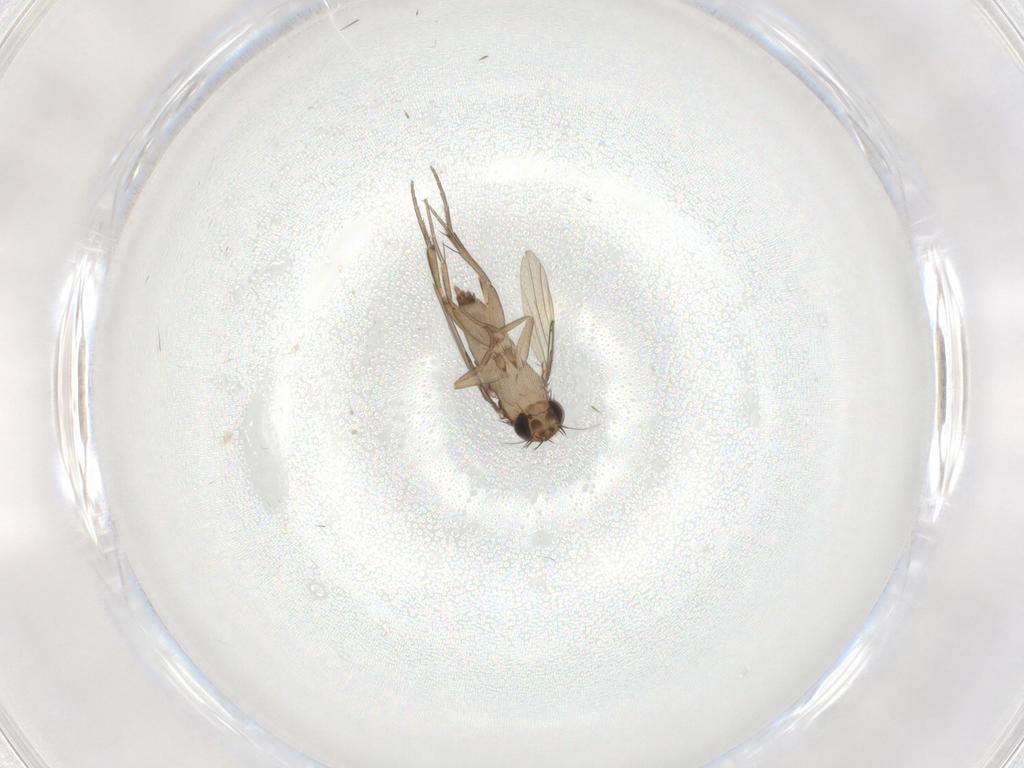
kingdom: Animalia
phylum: Arthropoda
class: Insecta
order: Diptera
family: Phoridae
